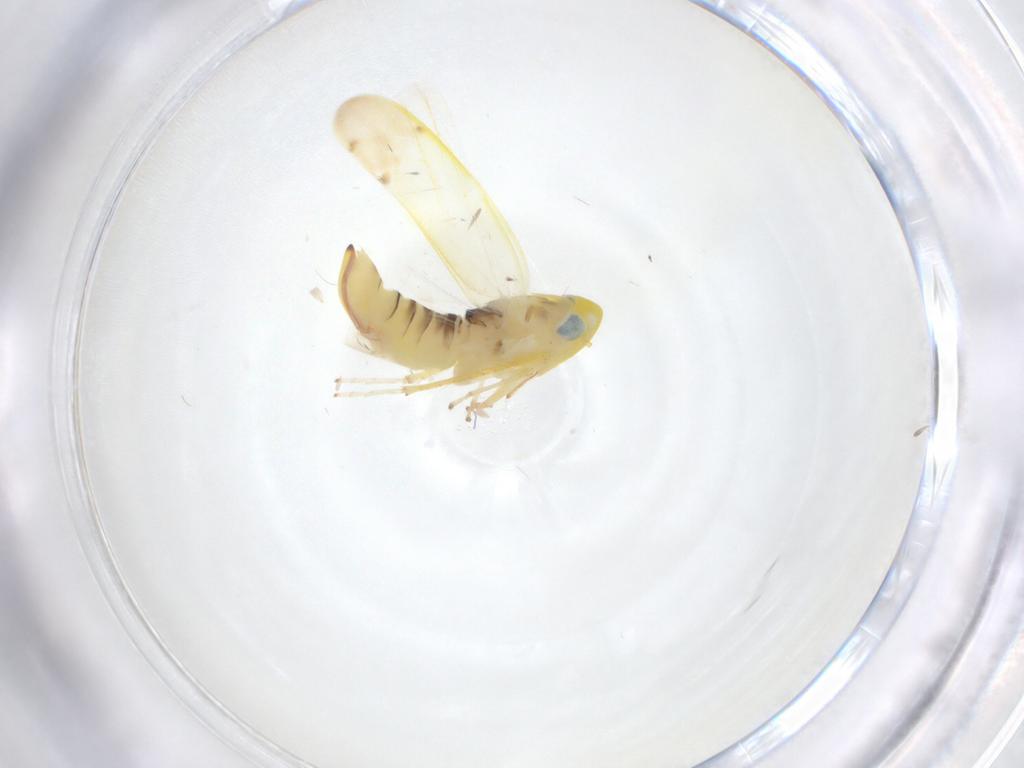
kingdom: Animalia
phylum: Arthropoda
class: Insecta
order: Hemiptera
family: Cicadellidae
